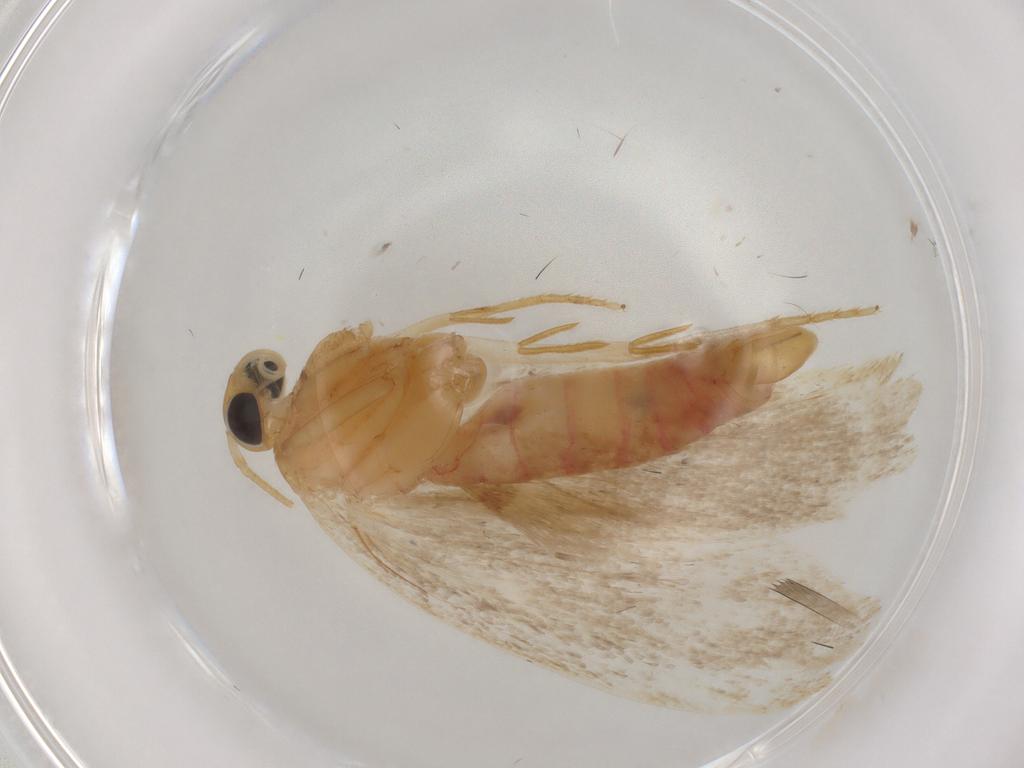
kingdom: Animalia
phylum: Arthropoda
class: Insecta
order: Lepidoptera
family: Autostichidae
